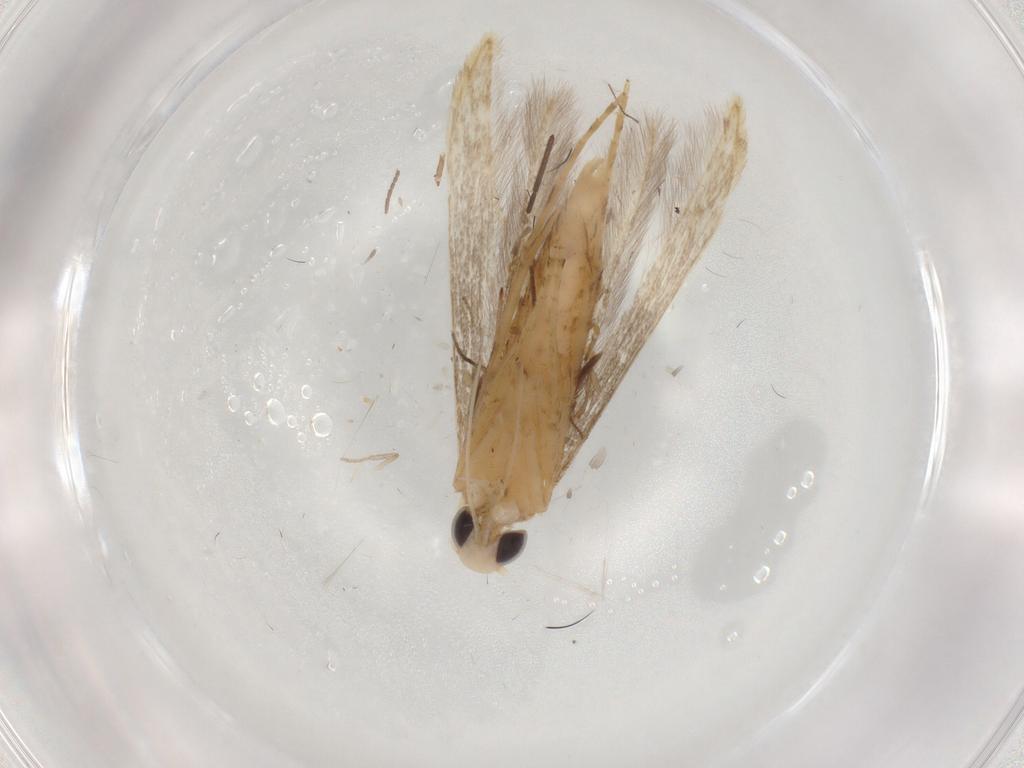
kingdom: Animalia
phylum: Arthropoda
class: Insecta
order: Lepidoptera
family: Batrachedridae
